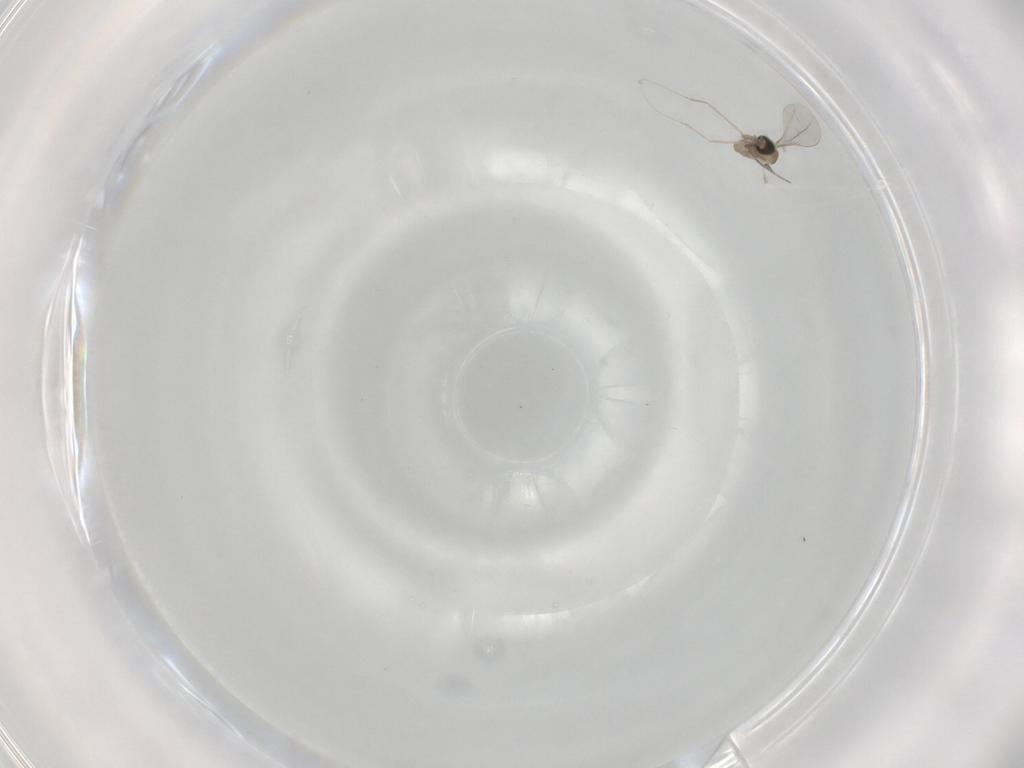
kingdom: Animalia
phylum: Arthropoda
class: Insecta
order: Diptera
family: Cecidomyiidae
